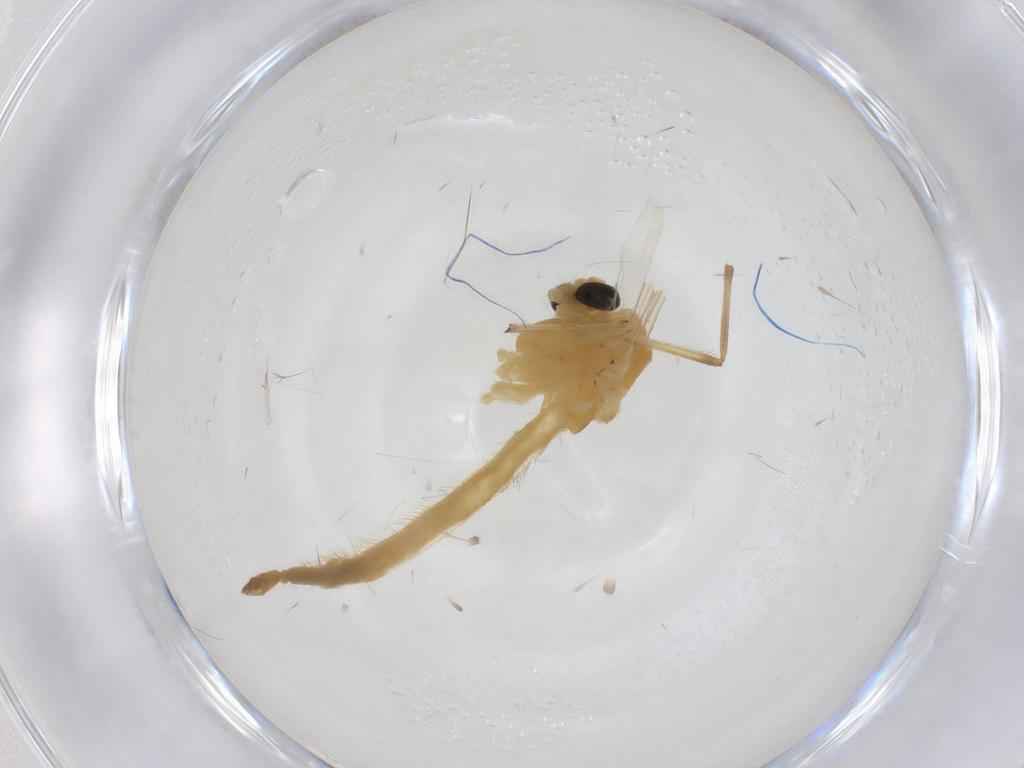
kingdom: Animalia
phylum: Arthropoda
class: Insecta
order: Diptera
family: Chironomidae
